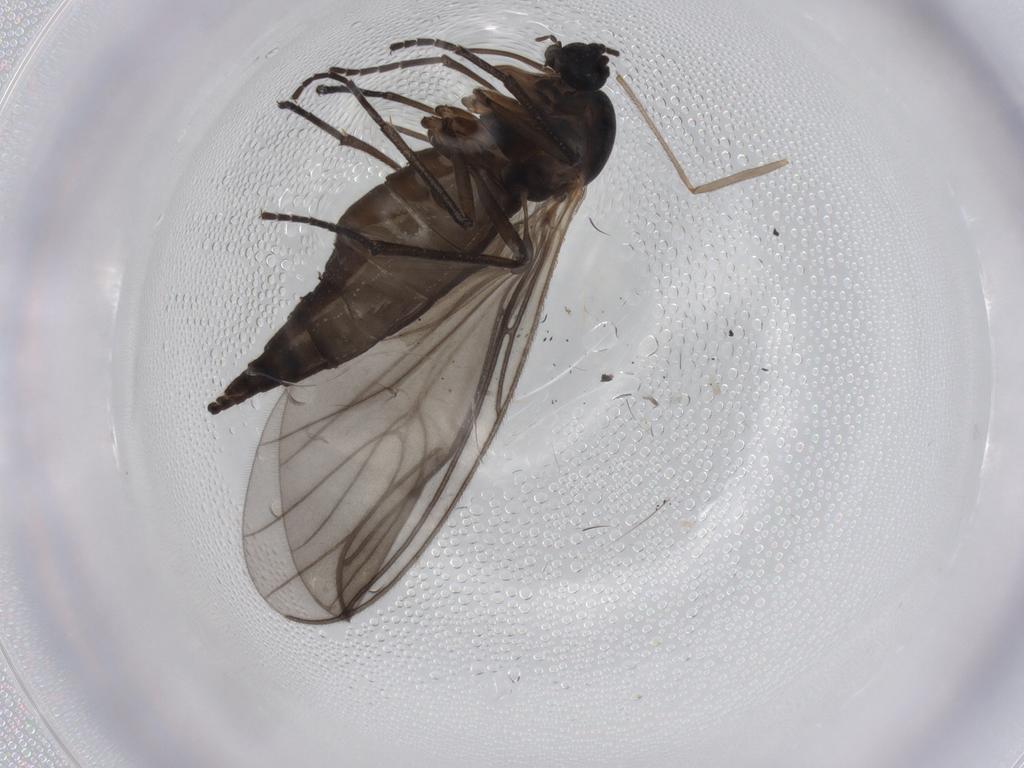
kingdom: Animalia
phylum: Arthropoda
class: Insecta
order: Diptera
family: Sciaridae
